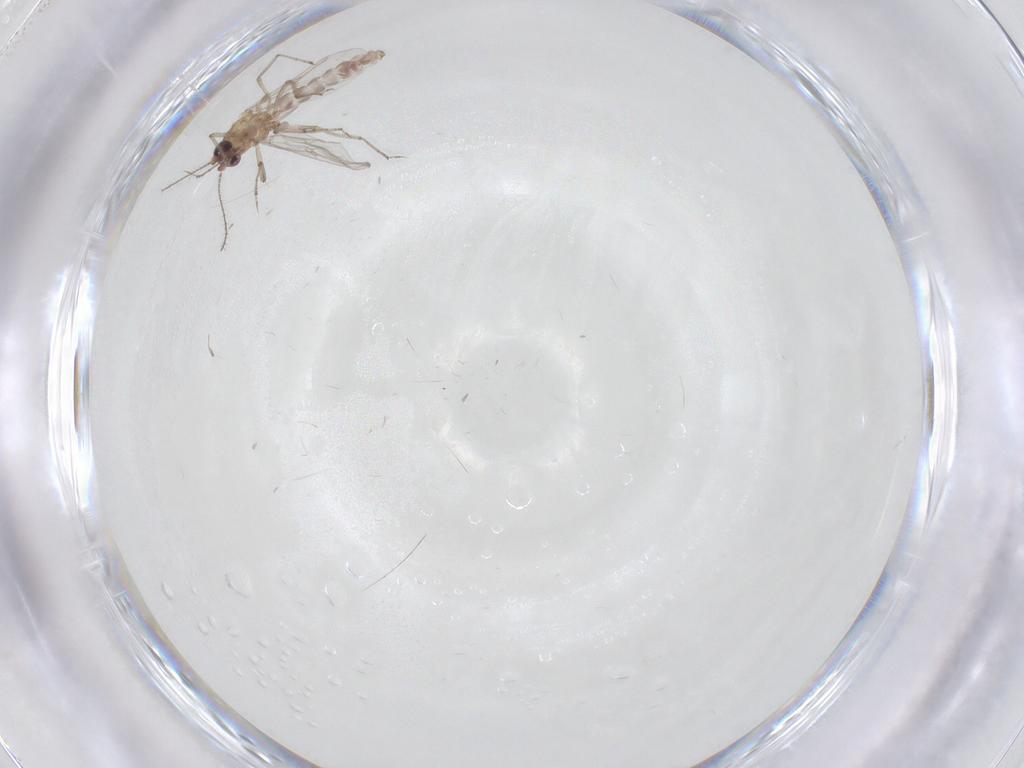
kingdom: Animalia
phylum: Arthropoda
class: Insecta
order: Diptera
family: Ceratopogonidae
